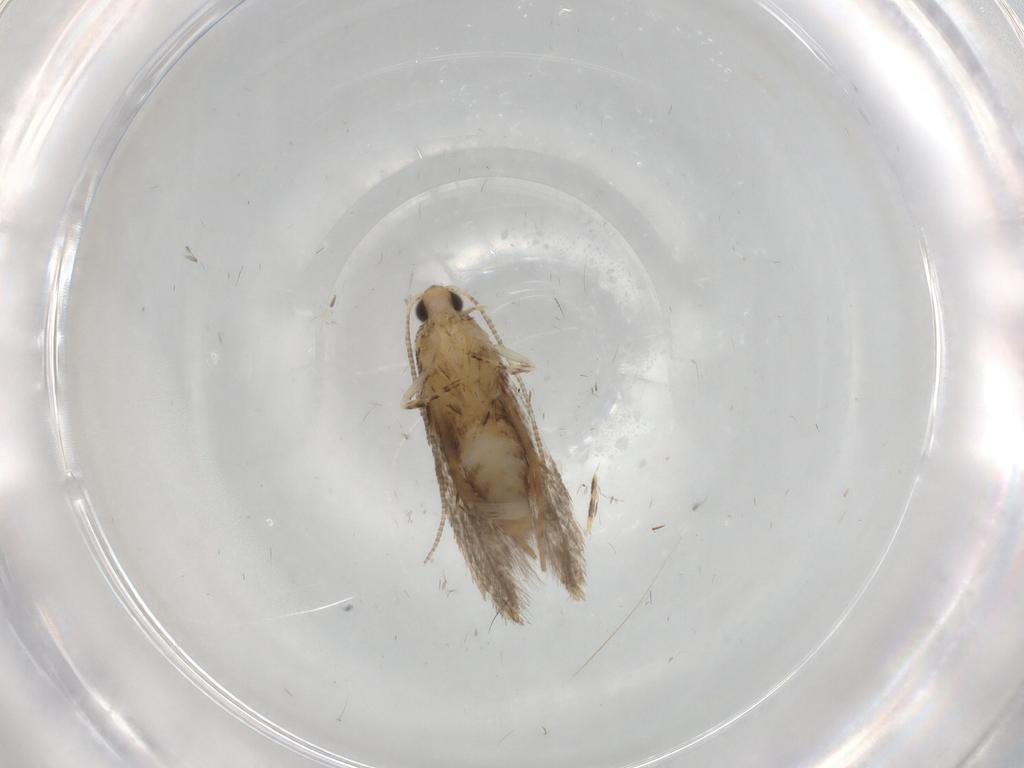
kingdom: Animalia
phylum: Arthropoda
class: Insecta
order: Lepidoptera
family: Tineidae
